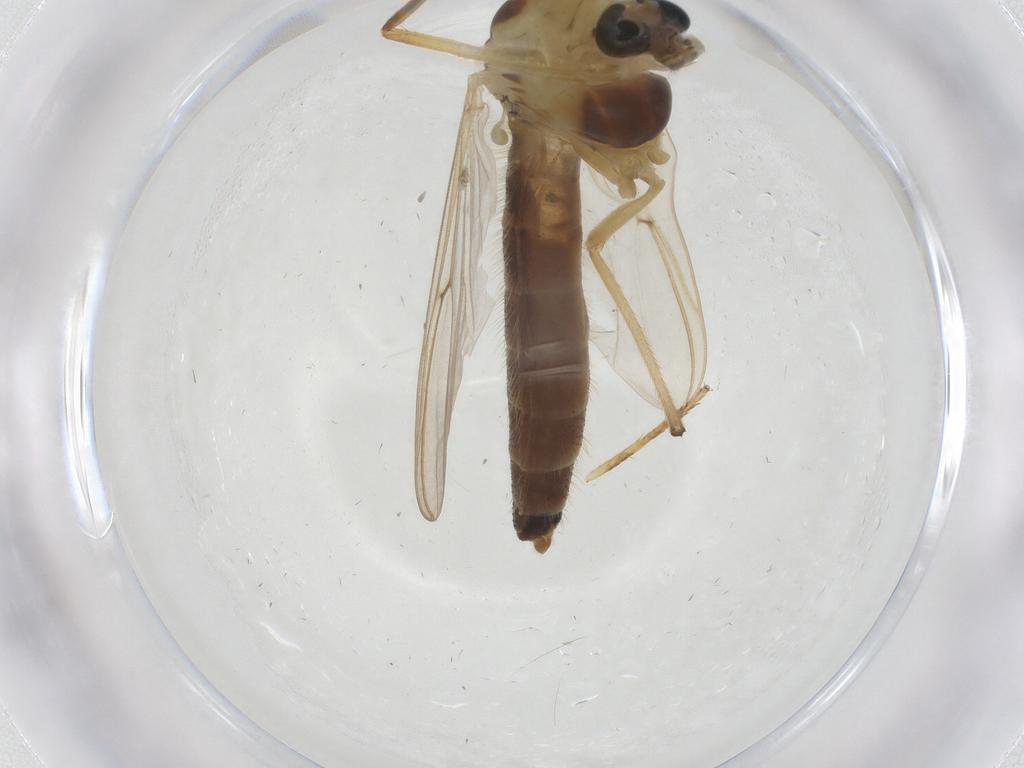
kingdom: Animalia
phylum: Arthropoda
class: Insecta
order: Diptera
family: Chironomidae
